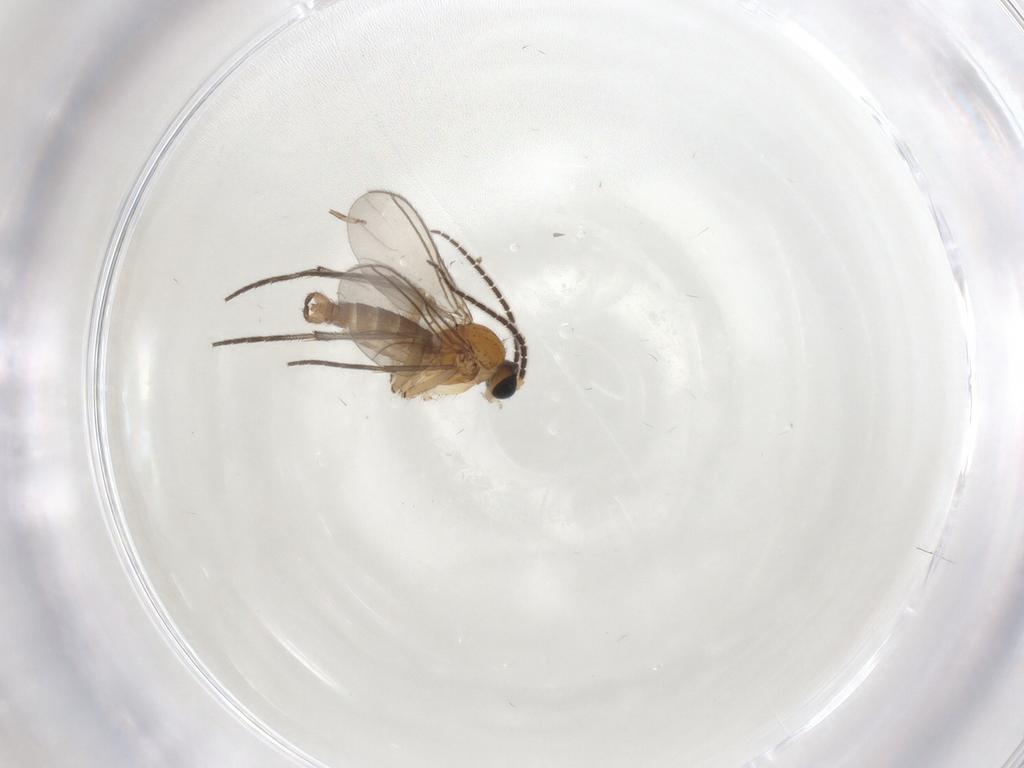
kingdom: Animalia
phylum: Arthropoda
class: Insecta
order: Diptera
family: Sciaridae
